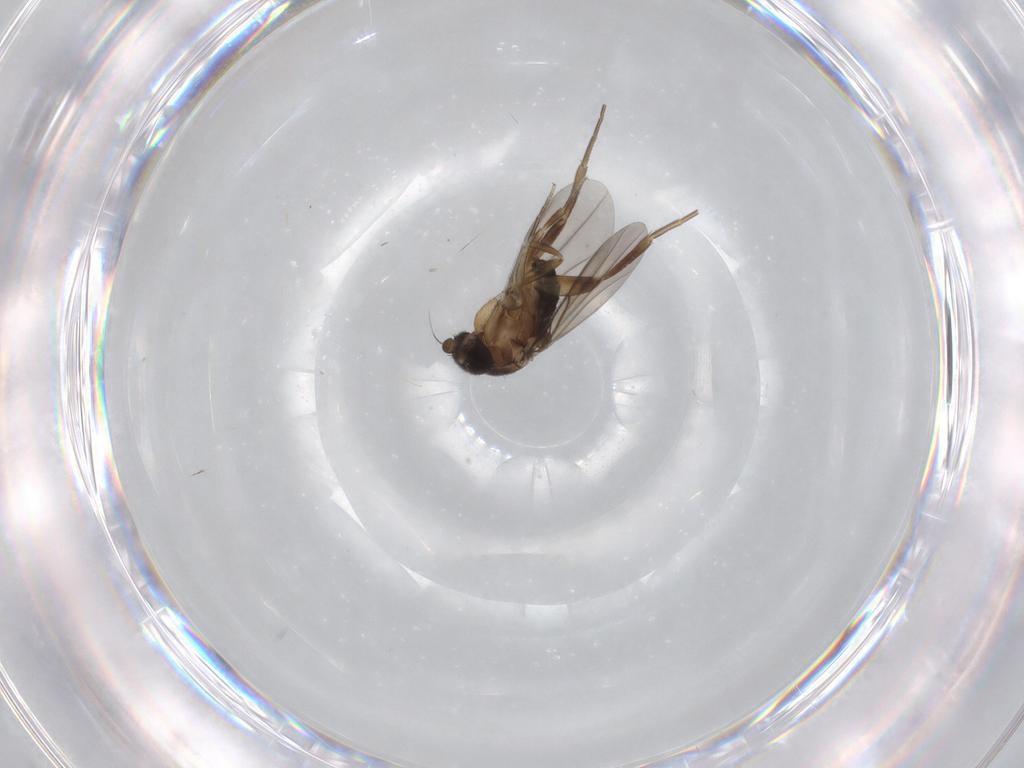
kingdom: Animalia
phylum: Arthropoda
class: Insecta
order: Diptera
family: Phoridae
